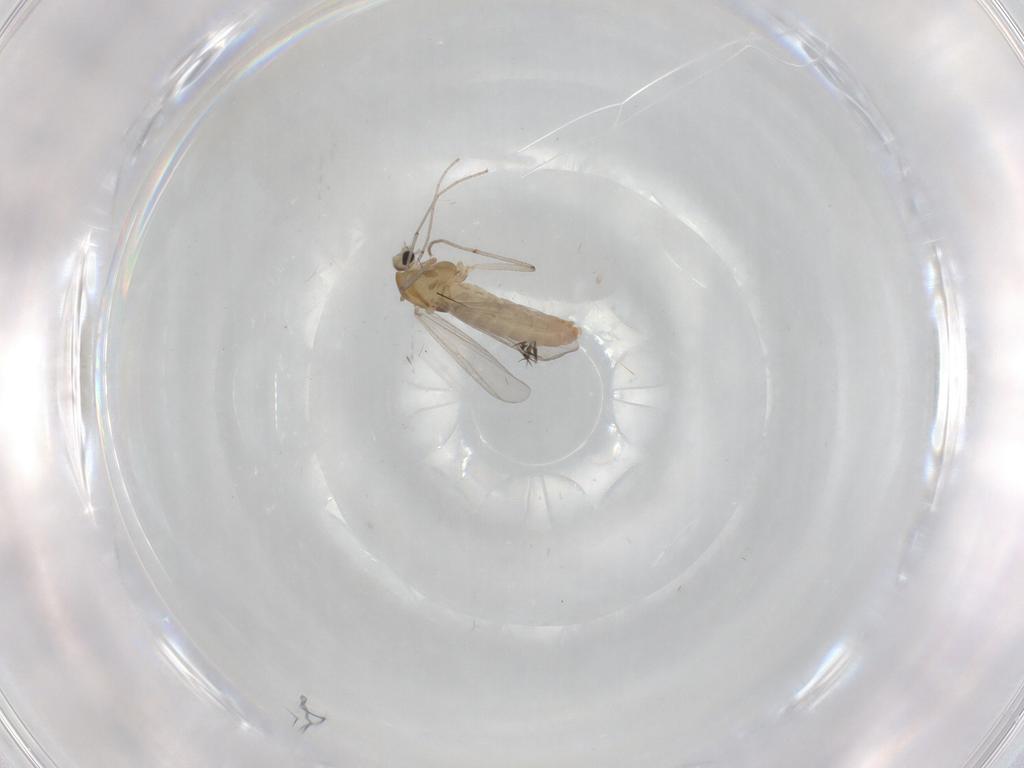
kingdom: Animalia
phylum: Arthropoda
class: Insecta
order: Diptera
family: Chironomidae
